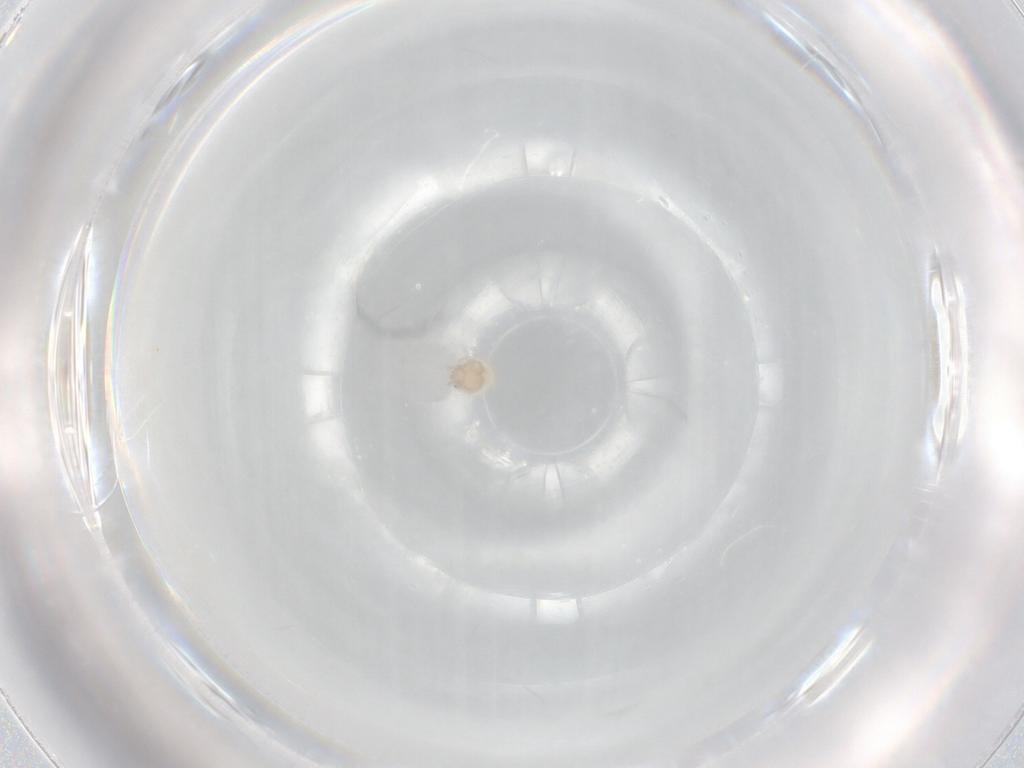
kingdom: Animalia
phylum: Arthropoda
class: Arachnida
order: Trombidiformes
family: Lebertiidae
